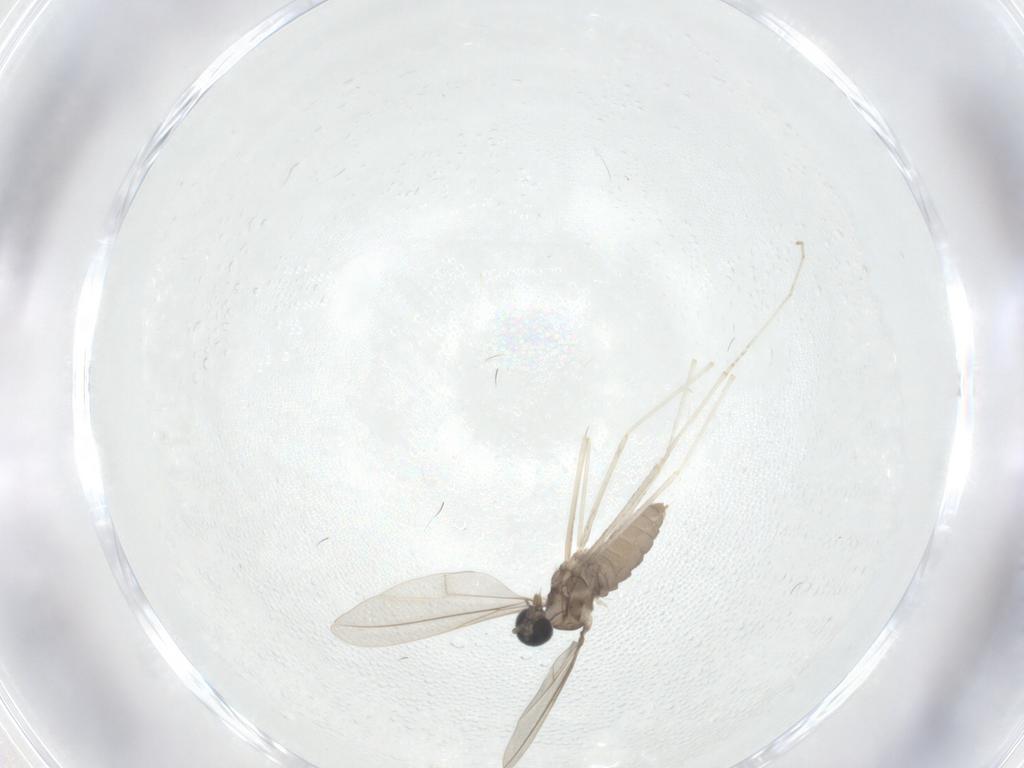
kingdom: Animalia
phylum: Arthropoda
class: Insecta
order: Diptera
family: Cecidomyiidae
